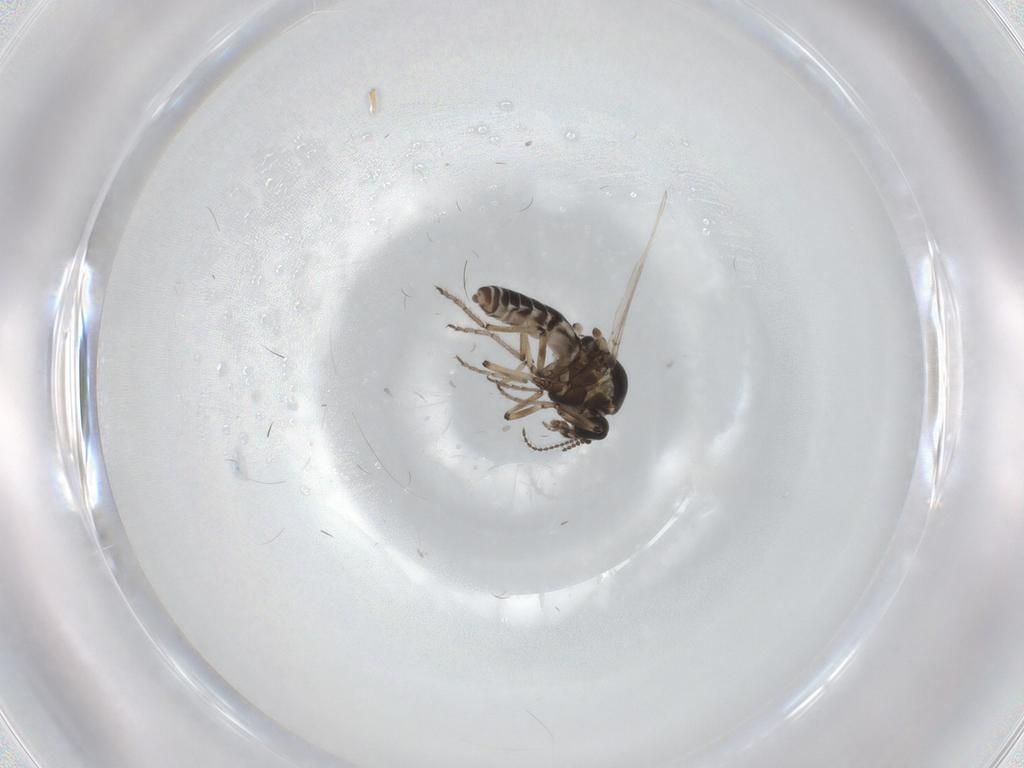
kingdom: Animalia
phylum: Arthropoda
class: Insecta
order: Diptera
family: Ceratopogonidae
